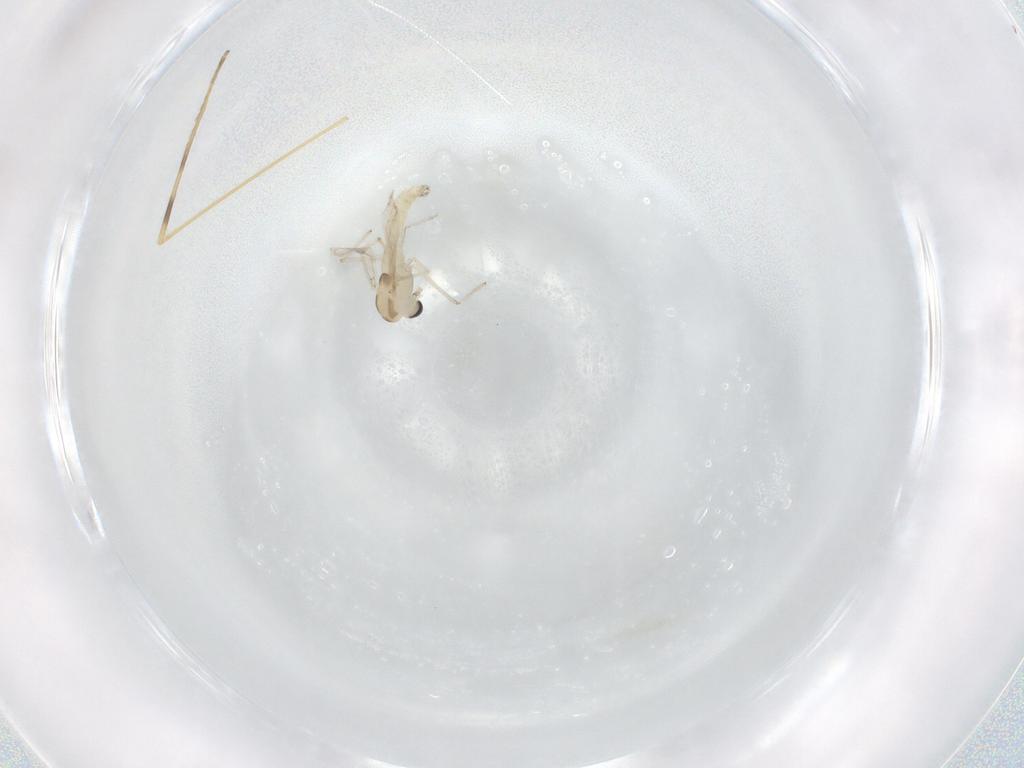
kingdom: Animalia
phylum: Arthropoda
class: Insecta
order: Diptera
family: Chironomidae
